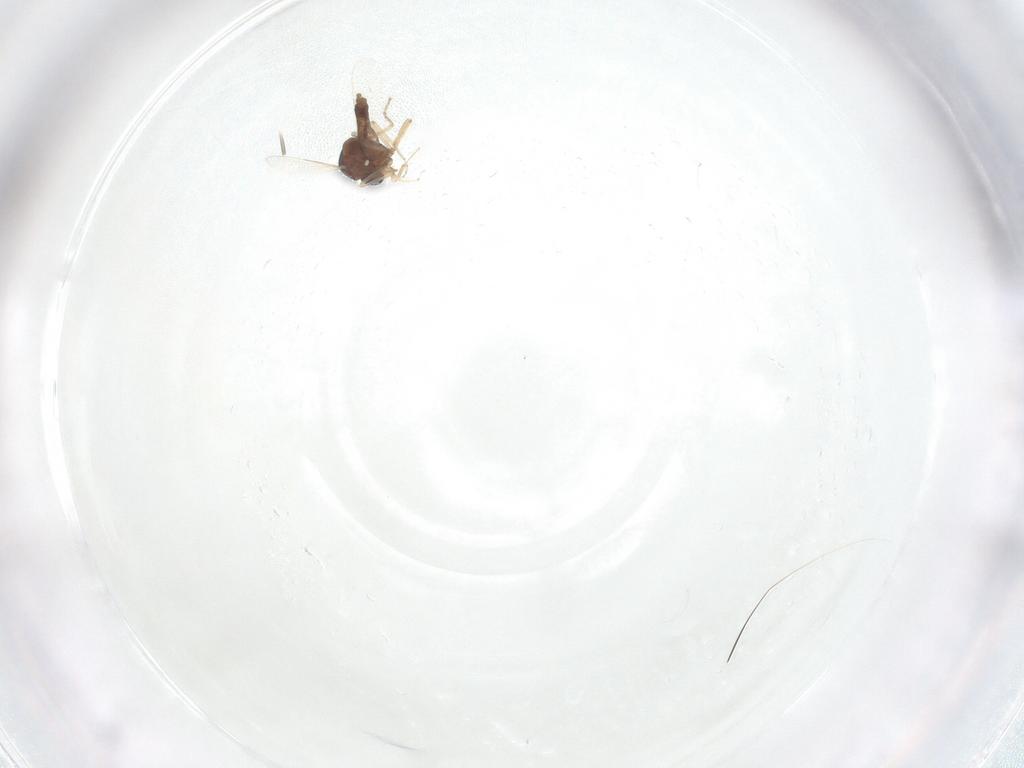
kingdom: Animalia
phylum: Arthropoda
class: Insecta
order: Diptera
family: Ceratopogonidae
